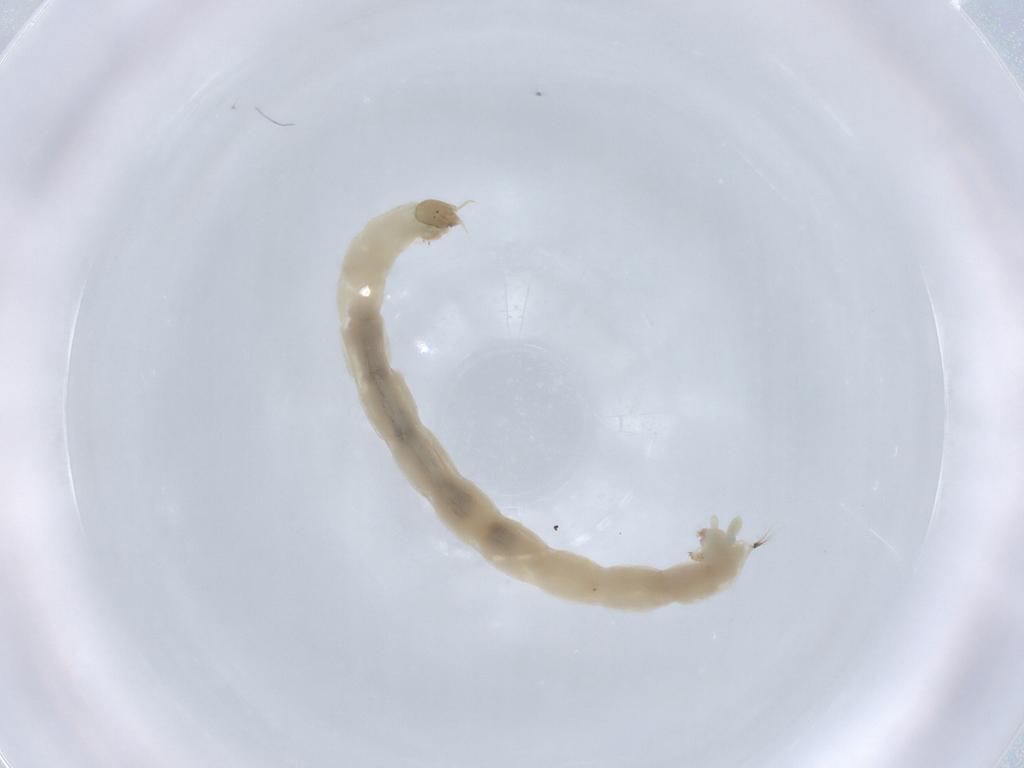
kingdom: Animalia
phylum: Arthropoda
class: Insecta
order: Diptera
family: Chironomidae
